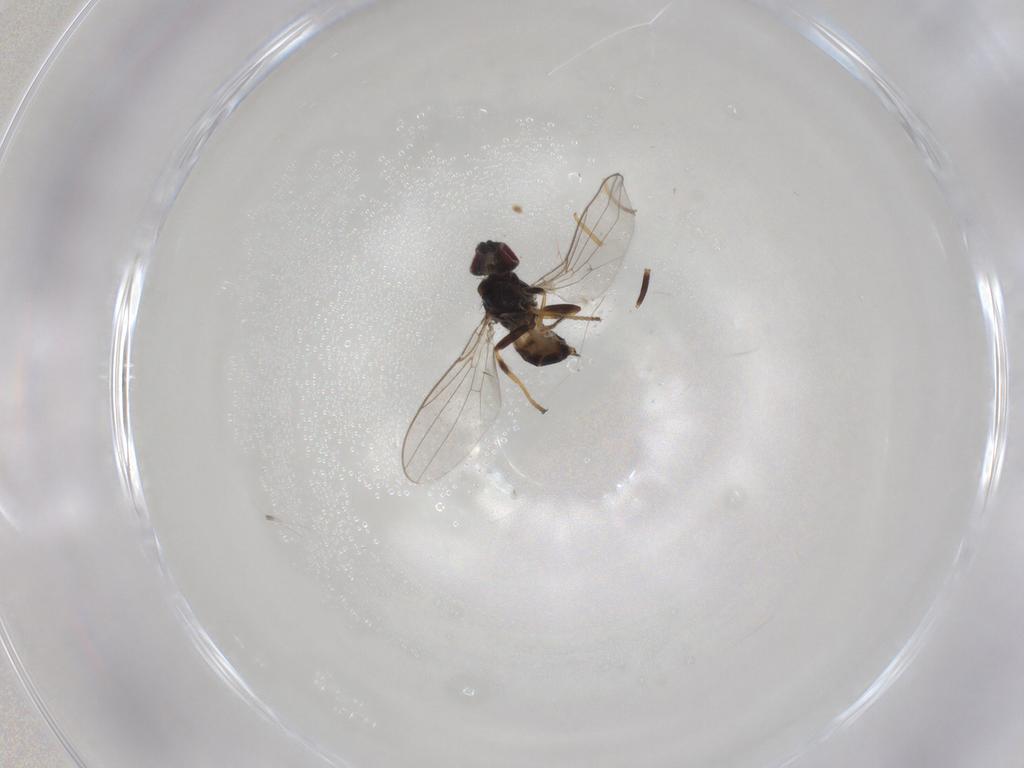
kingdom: Animalia
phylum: Arthropoda
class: Insecta
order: Diptera
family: Chloropidae
